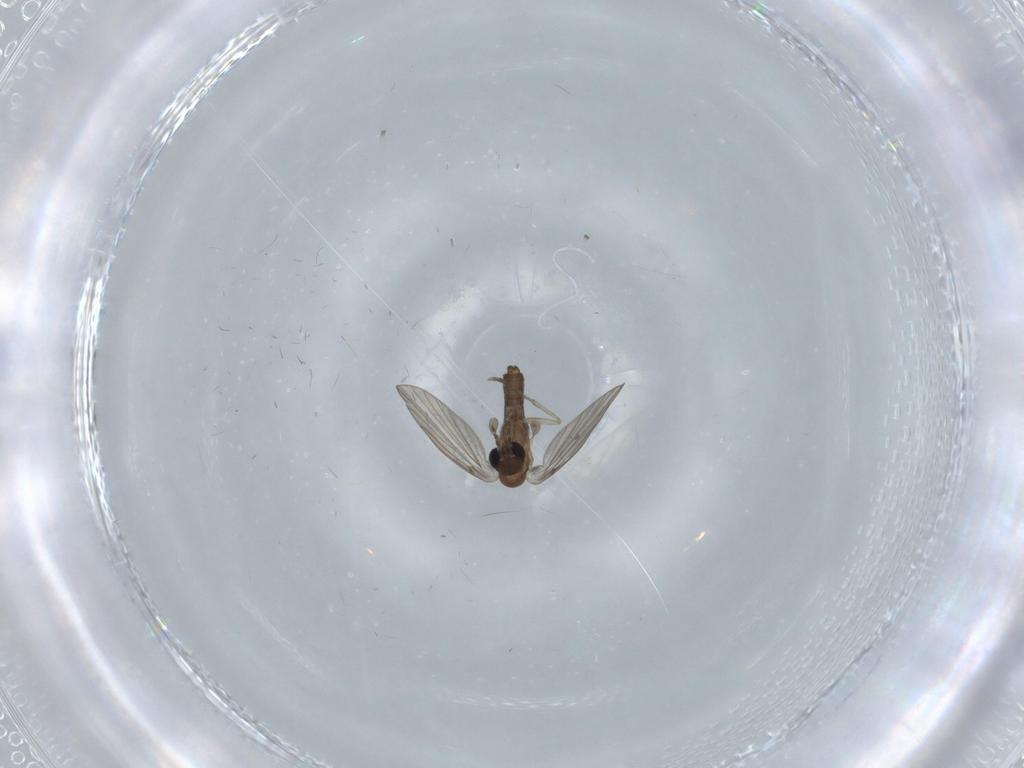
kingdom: Animalia
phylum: Arthropoda
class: Insecta
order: Diptera
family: Psychodidae
